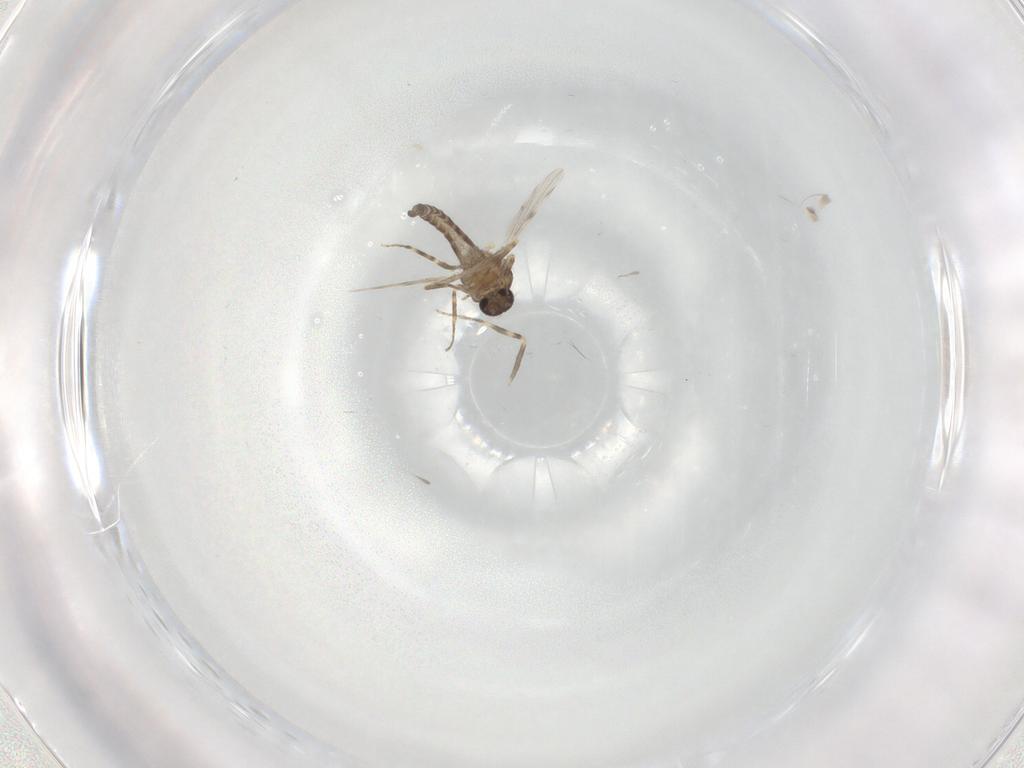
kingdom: Animalia
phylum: Arthropoda
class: Insecta
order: Diptera
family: Ceratopogonidae
